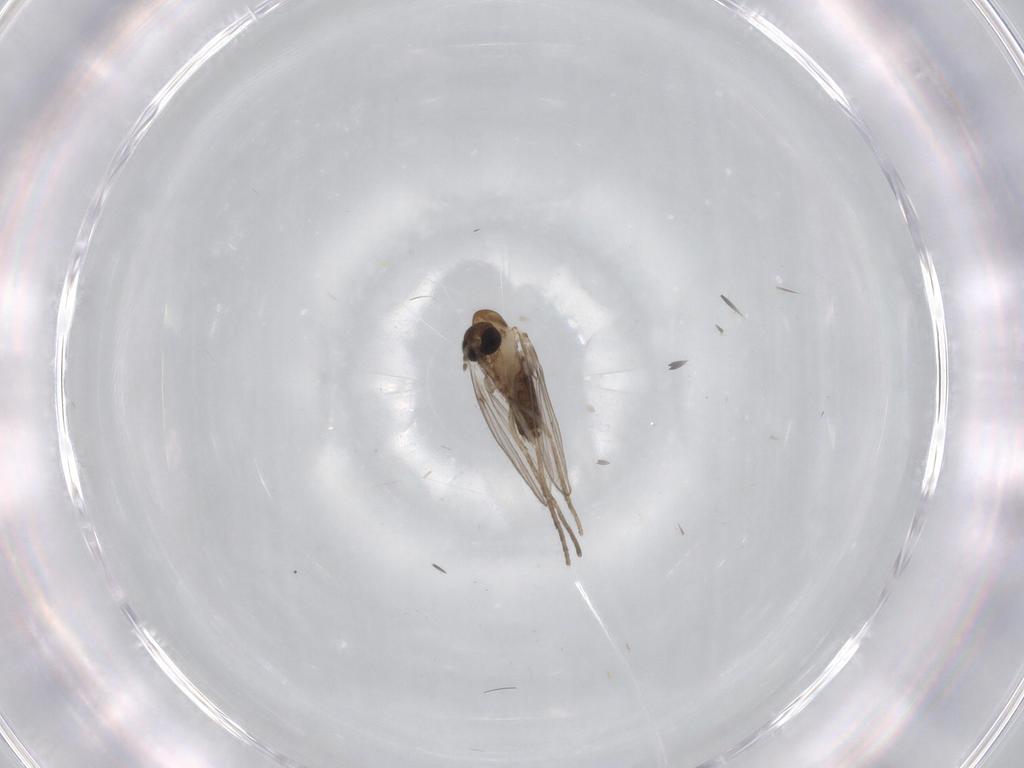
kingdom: Animalia
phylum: Arthropoda
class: Insecta
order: Diptera
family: Psychodidae
